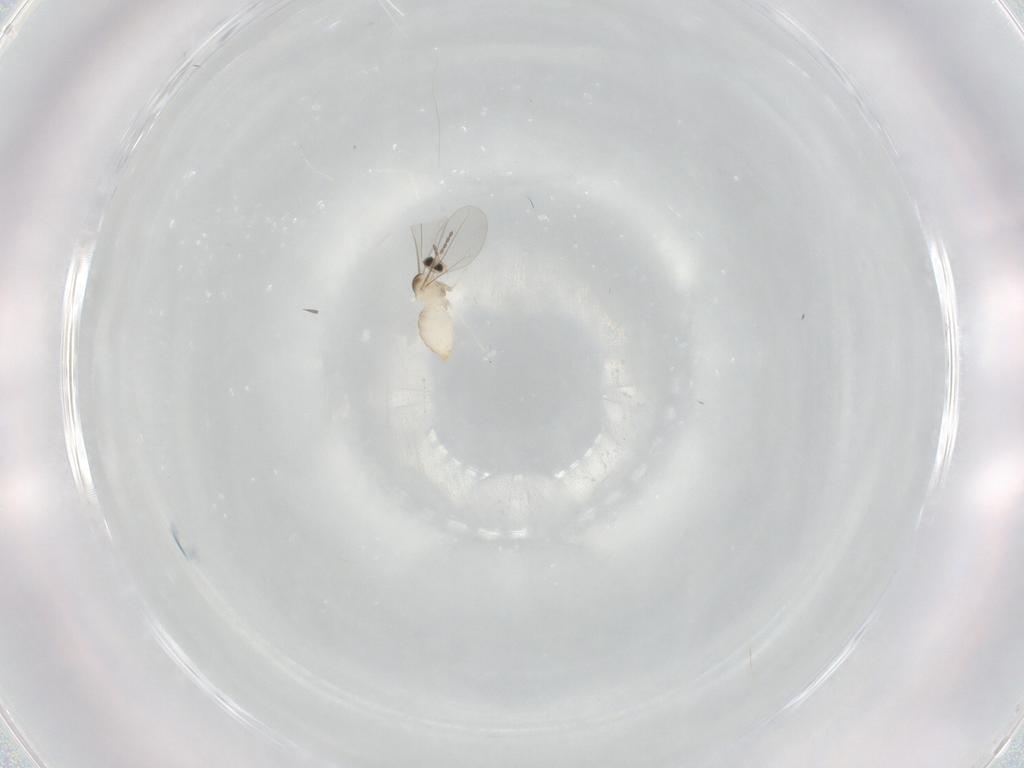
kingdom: Animalia
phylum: Arthropoda
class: Insecta
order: Diptera
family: Cecidomyiidae
